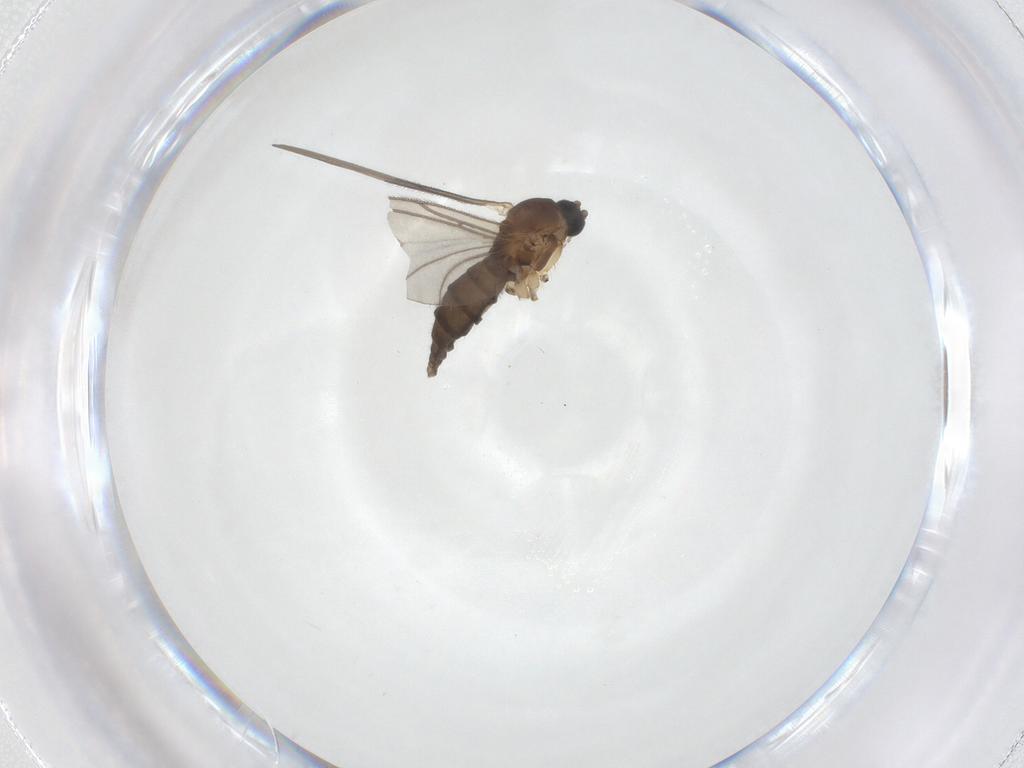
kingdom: Animalia
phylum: Arthropoda
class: Insecta
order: Diptera
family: Sciaridae
